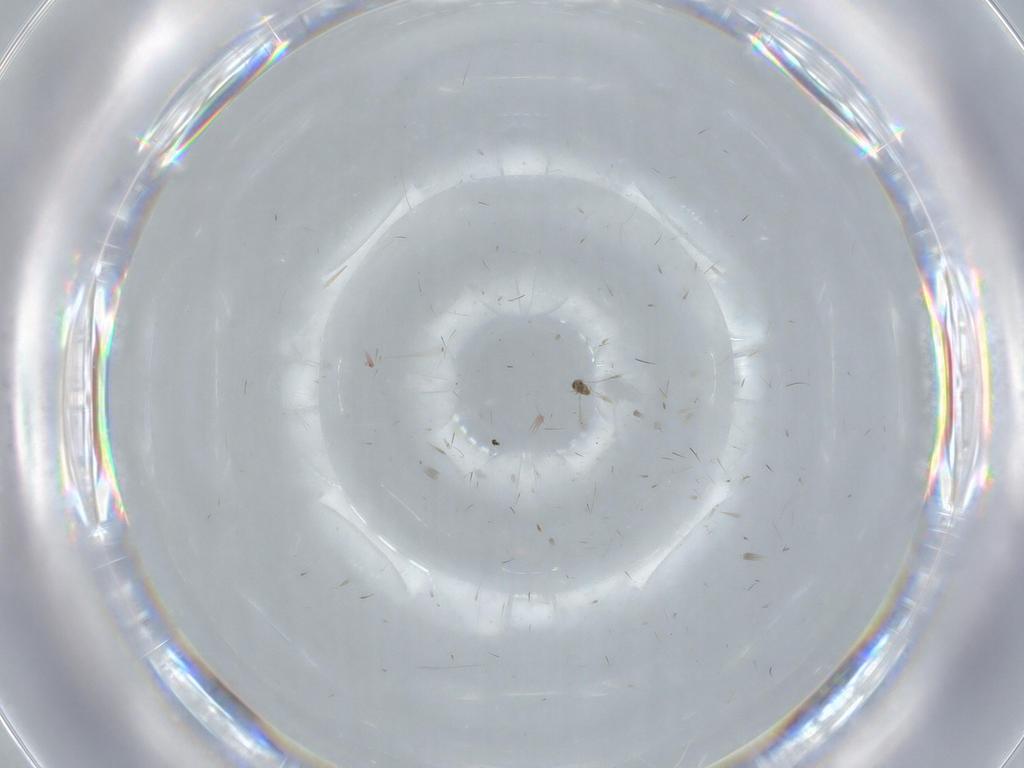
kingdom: Animalia
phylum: Arthropoda
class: Insecta
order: Hymenoptera
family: Mymaridae
